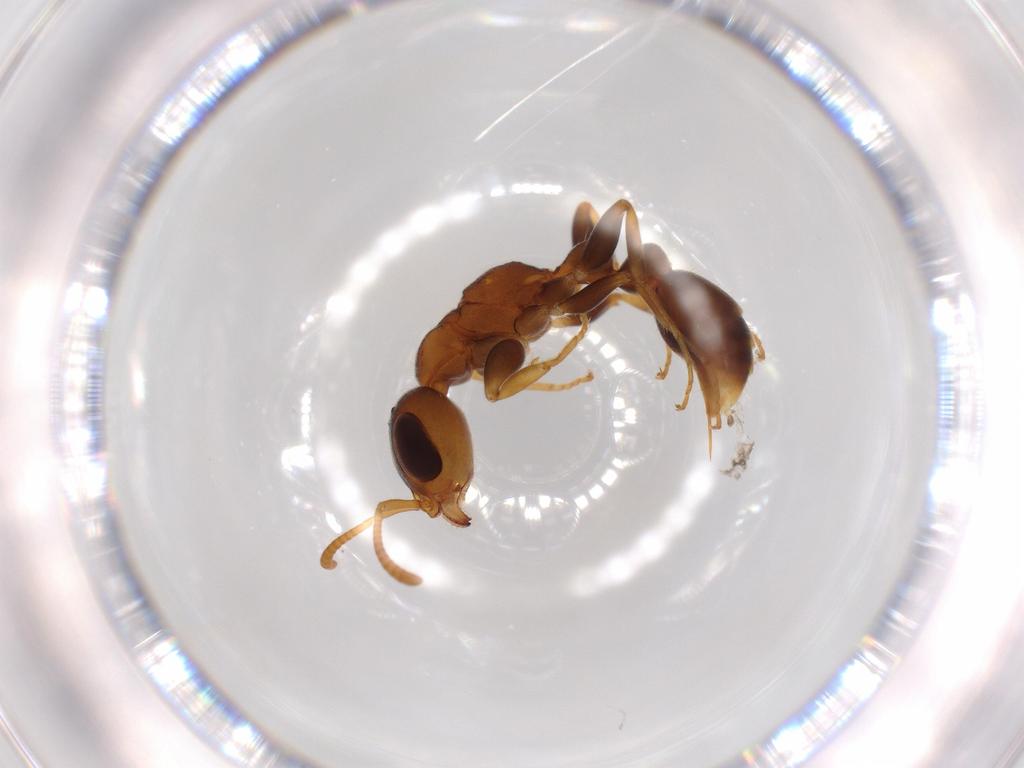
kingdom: Animalia
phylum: Arthropoda
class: Insecta
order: Hymenoptera
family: Formicidae
